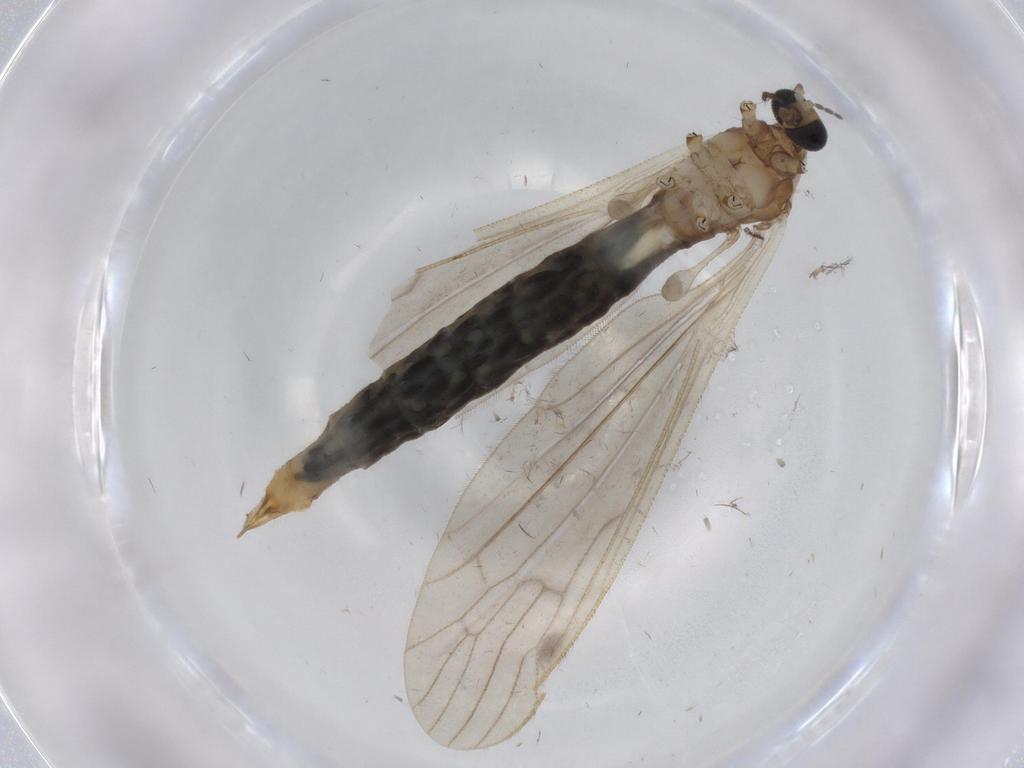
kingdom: Animalia
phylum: Arthropoda
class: Insecta
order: Diptera
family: Limoniidae
